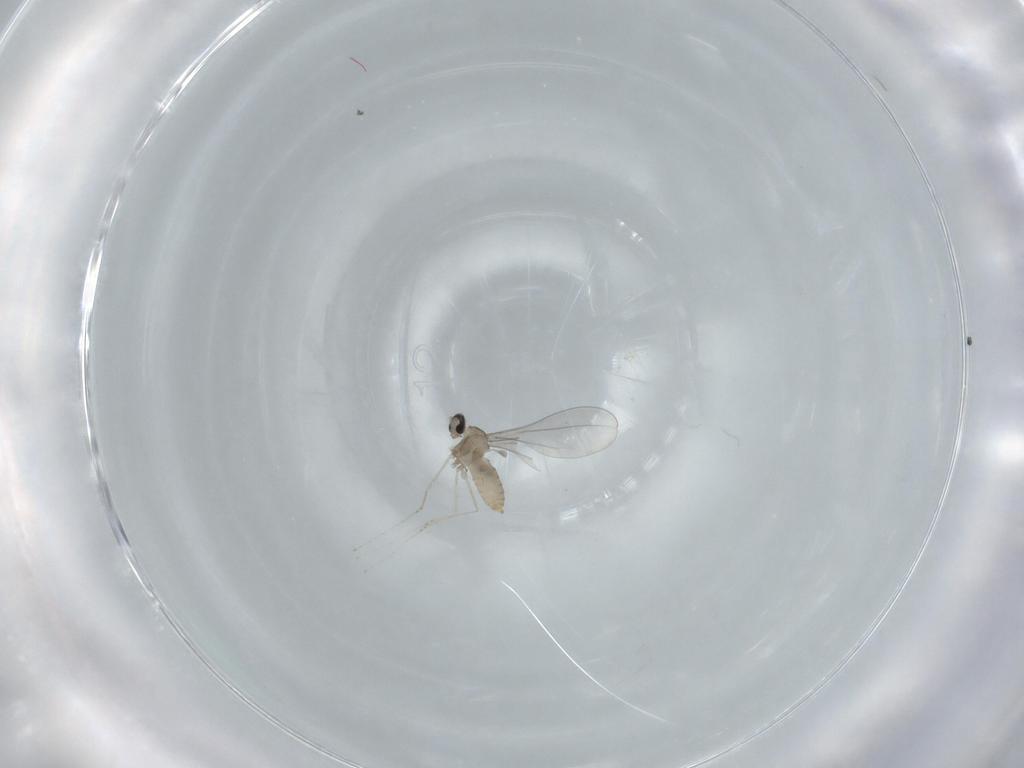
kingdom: Animalia
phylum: Arthropoda
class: Insecta
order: Diptera
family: Cecidomyiidae
